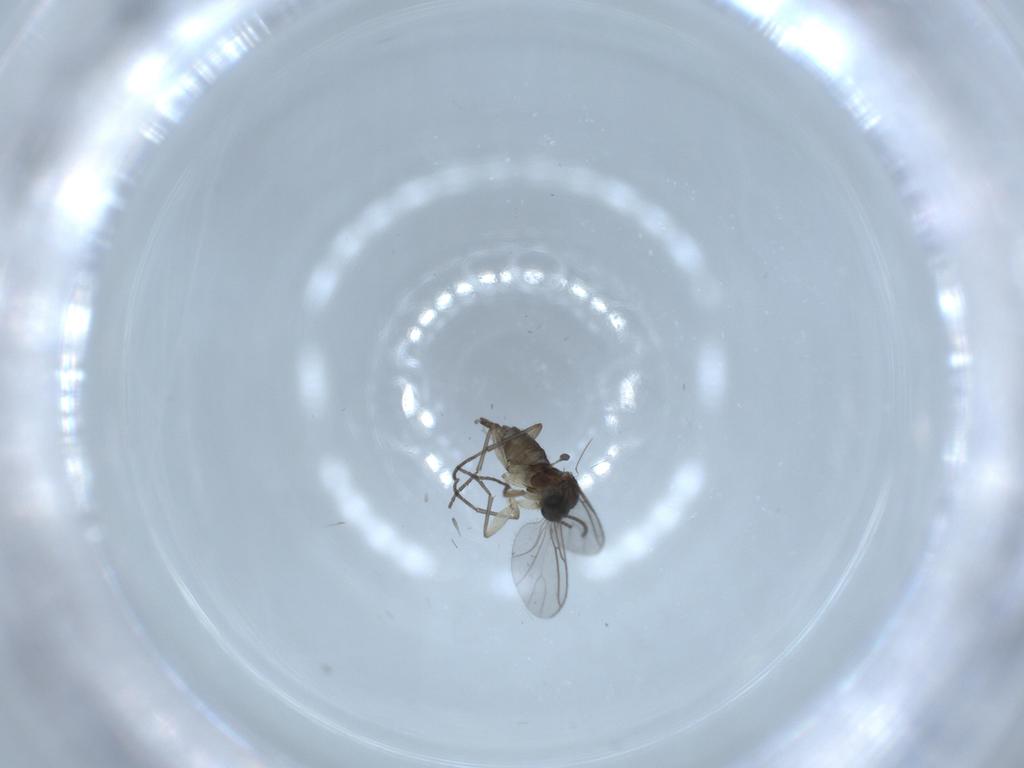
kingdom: Animalia
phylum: Arthropoda
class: Insecta
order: Diptera
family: Sciaridae
